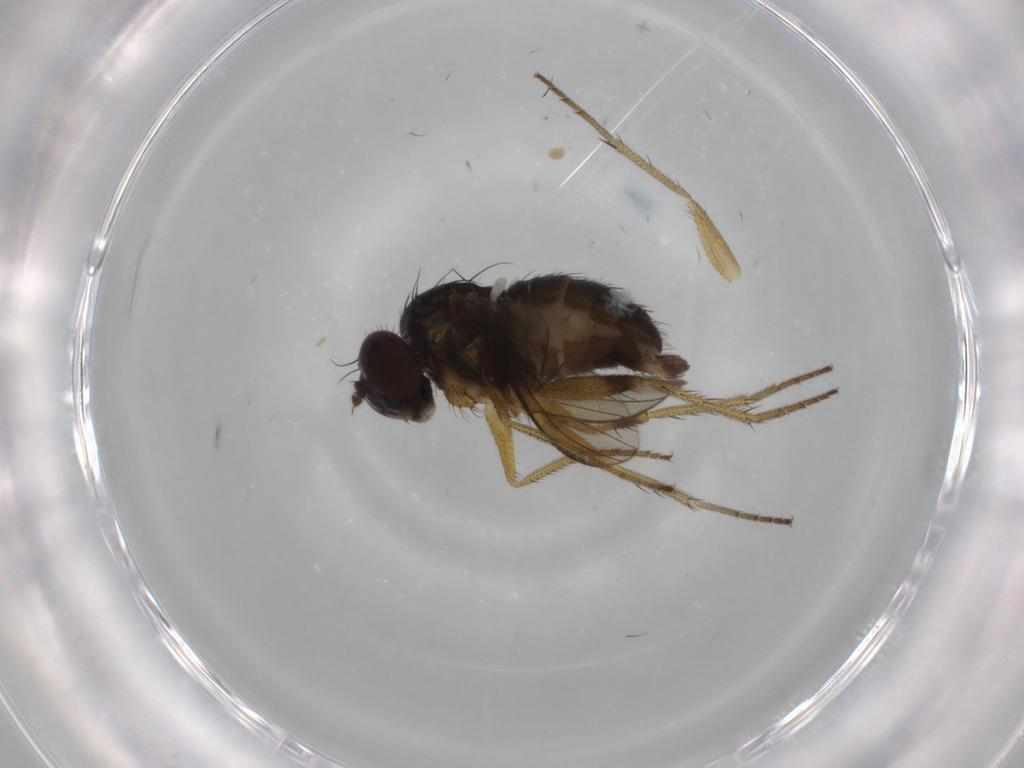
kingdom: Animalia
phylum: Arthropoda
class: Insecta
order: Diptera
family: Dolichopodidae
